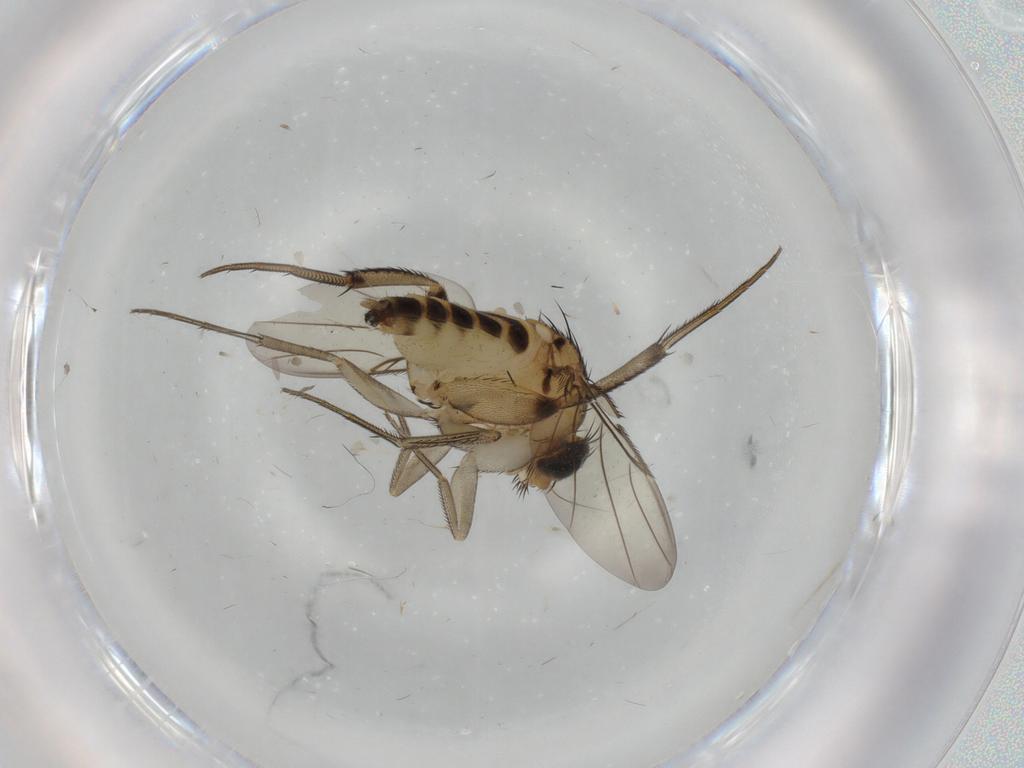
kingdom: Animalia
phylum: Arthropoda
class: Insecta
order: Diptera
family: Phoridae
